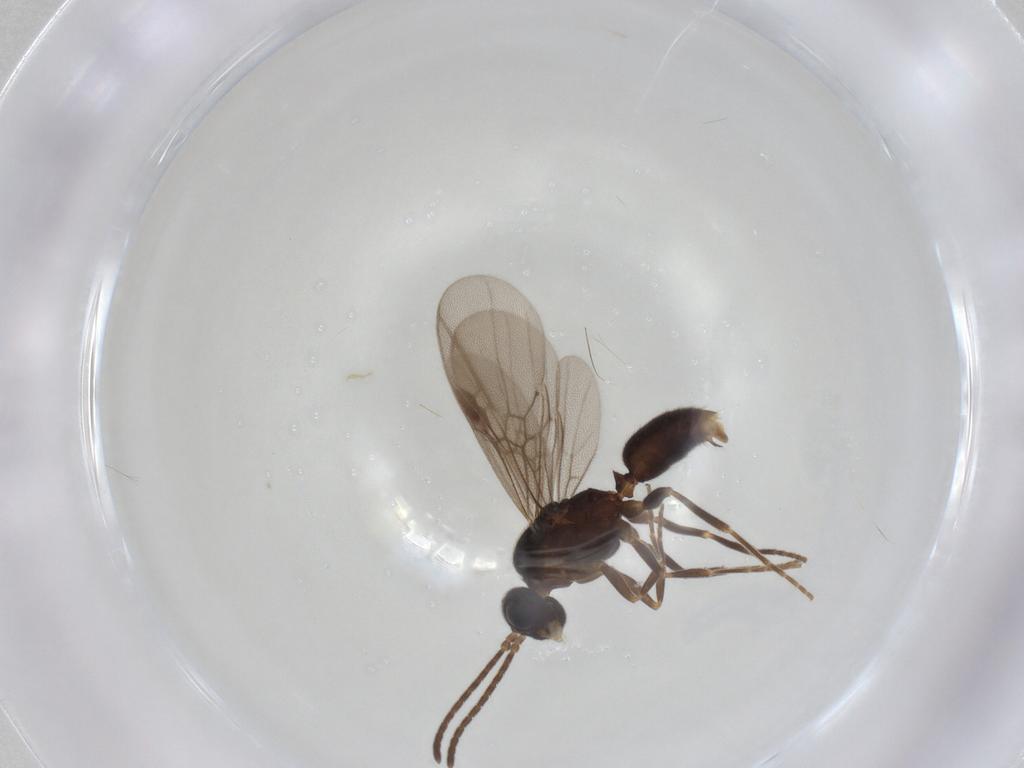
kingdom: Animalia
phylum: Arthropoda
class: Insecta
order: Hymenoptera
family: Formicidae
